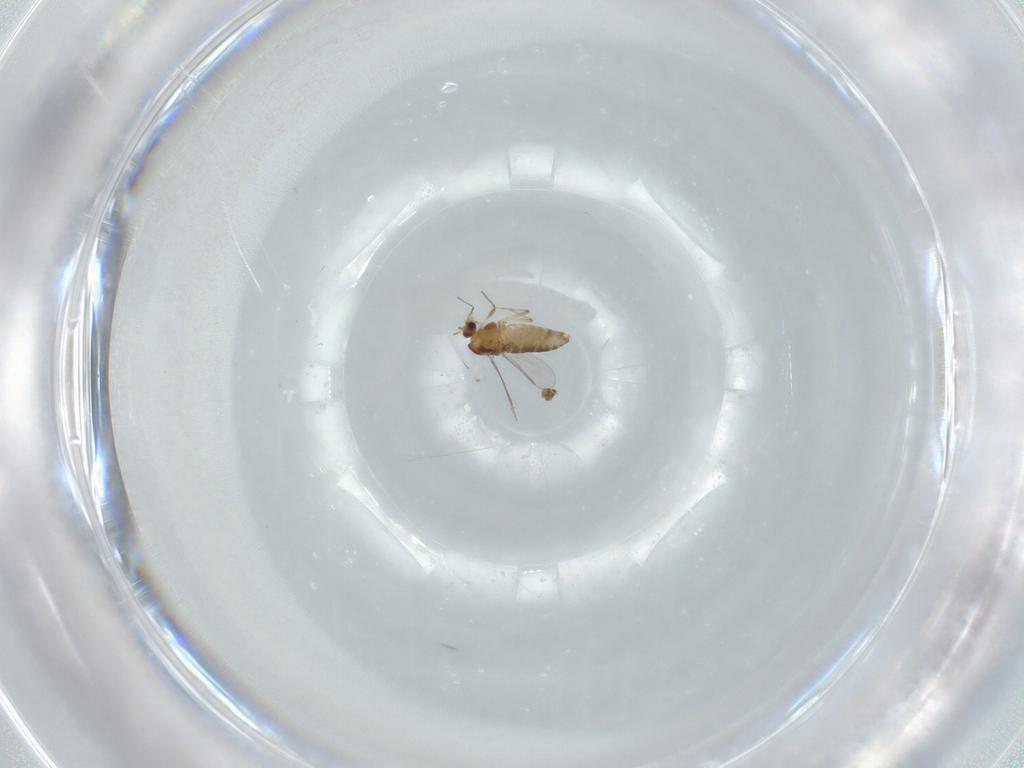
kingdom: Animalia
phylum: Arthropoda
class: Insecta
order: Diptera
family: Chironomidae
